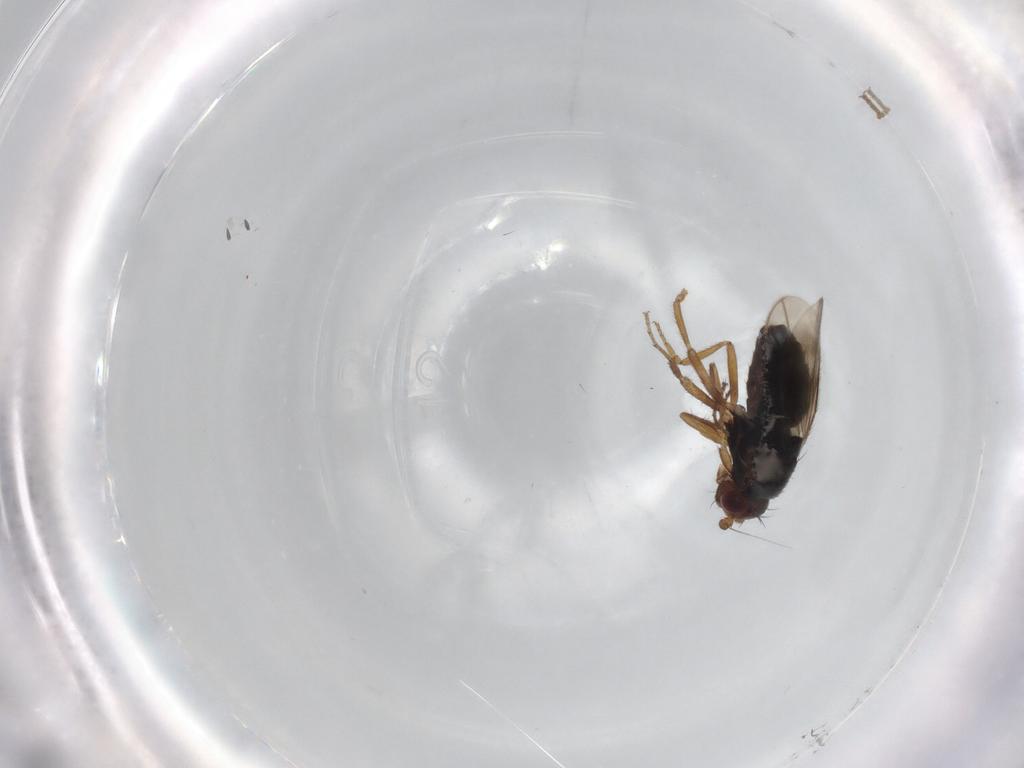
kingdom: Animalia
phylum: Arthropoda
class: Insecta
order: Diptera
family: Sphaeroceridae
